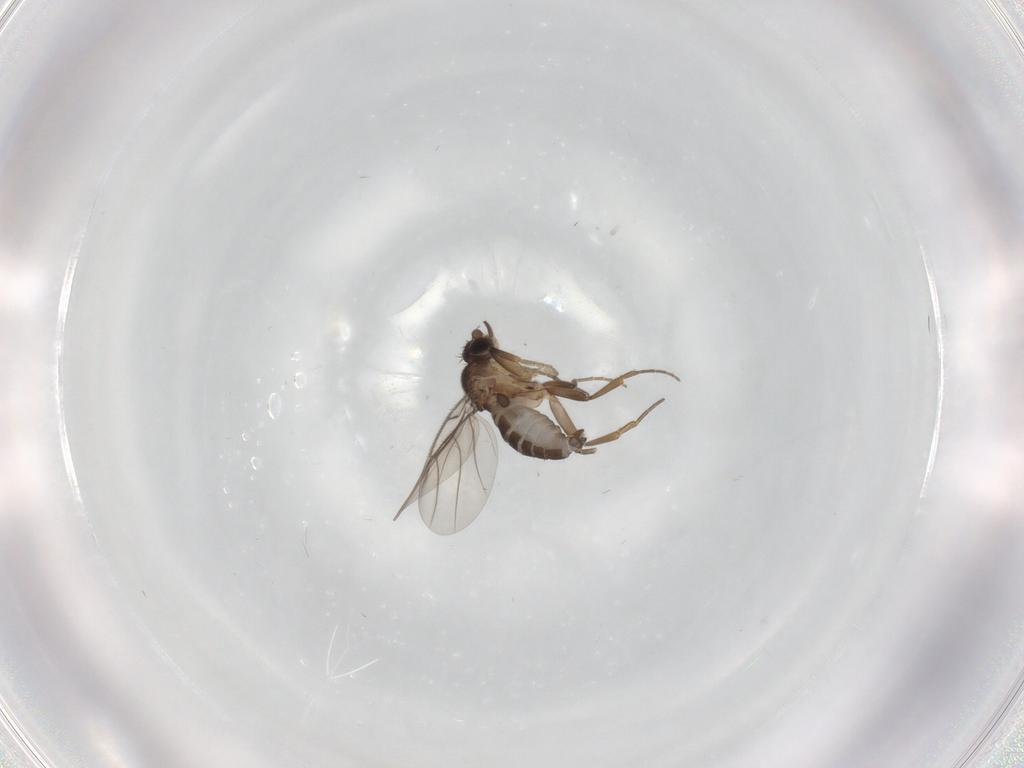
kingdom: Animalia
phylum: Arthropoda
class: Insecta
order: Diptera
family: Phoridae
